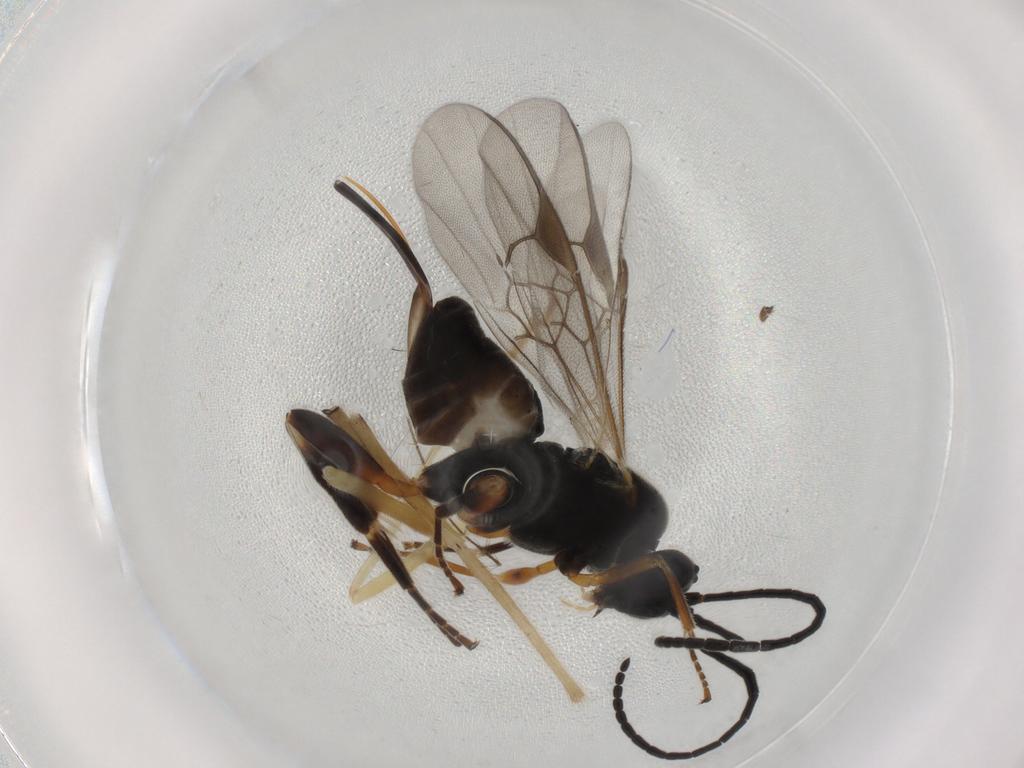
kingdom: Animalia
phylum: Arthropoda
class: Insecta
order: Hymenoptera
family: Braconidae
